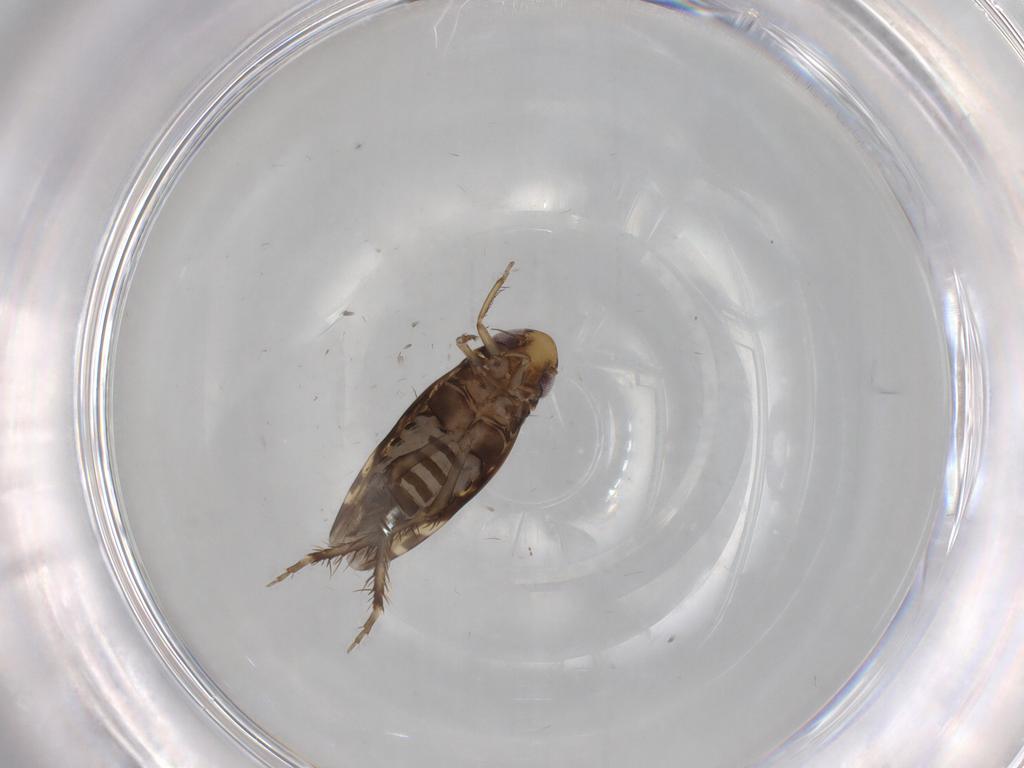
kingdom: Animalia
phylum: Arthropoda
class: Insecta
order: Hemiptera
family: Cicadellidae
